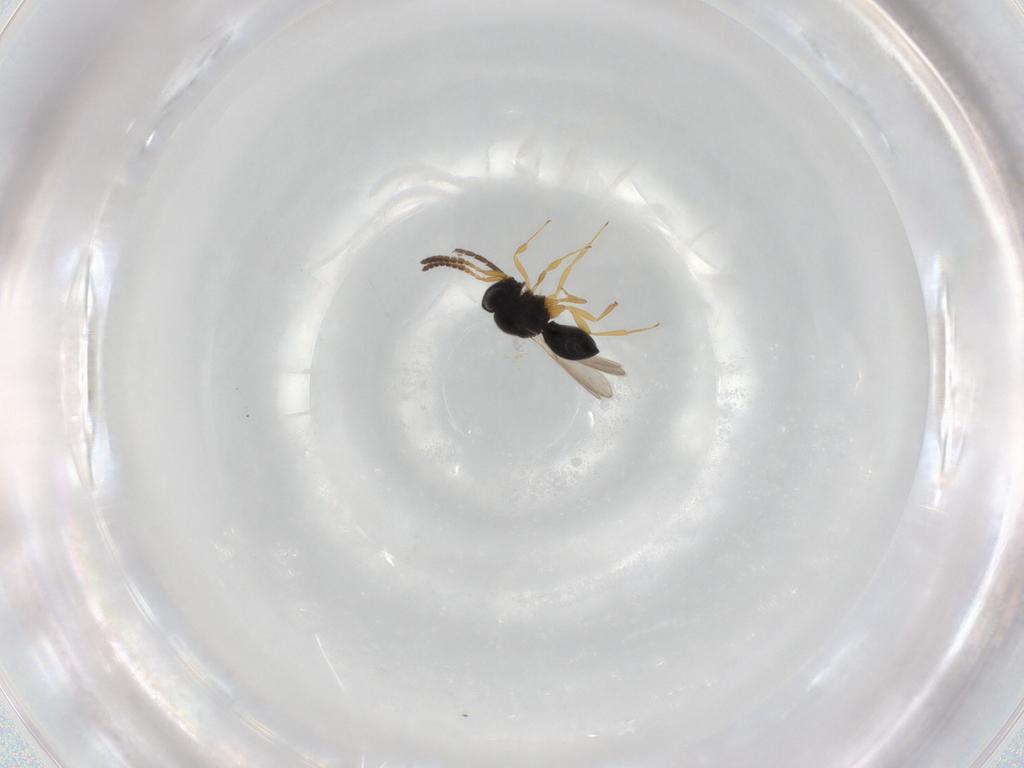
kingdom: Animalia
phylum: Arthropoda
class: Insecta
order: Hymenoptera
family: Scelionidae
